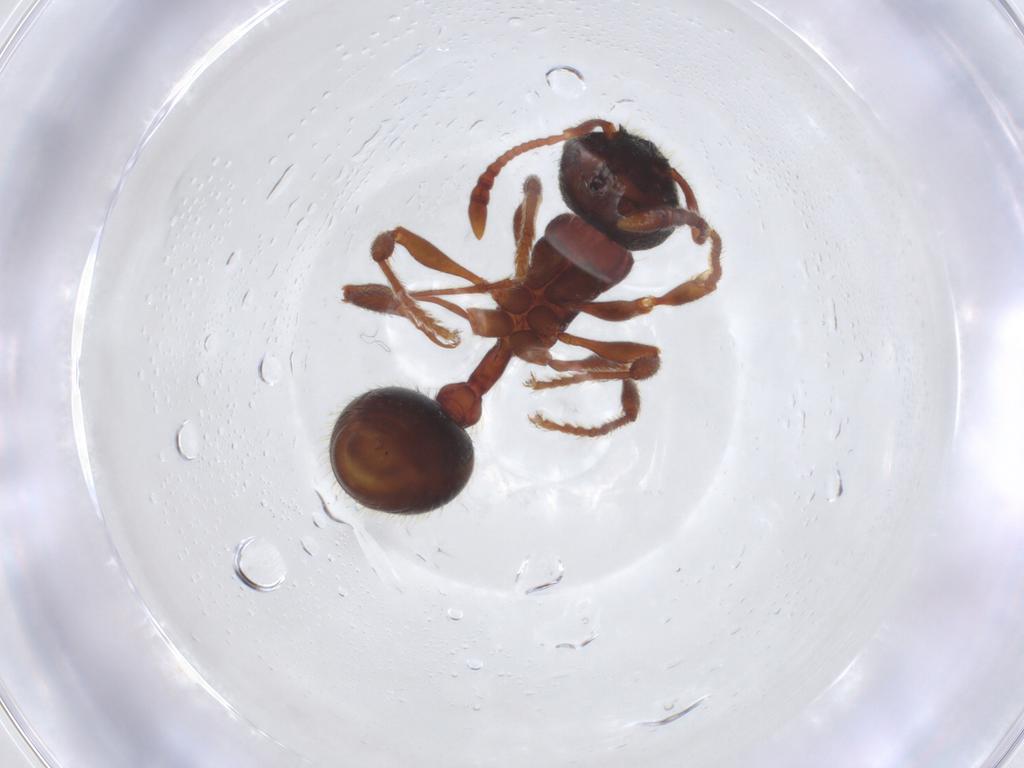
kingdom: Animalia
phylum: Arthropoda
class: Insecta
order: Hymenoptera
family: Formicidae
